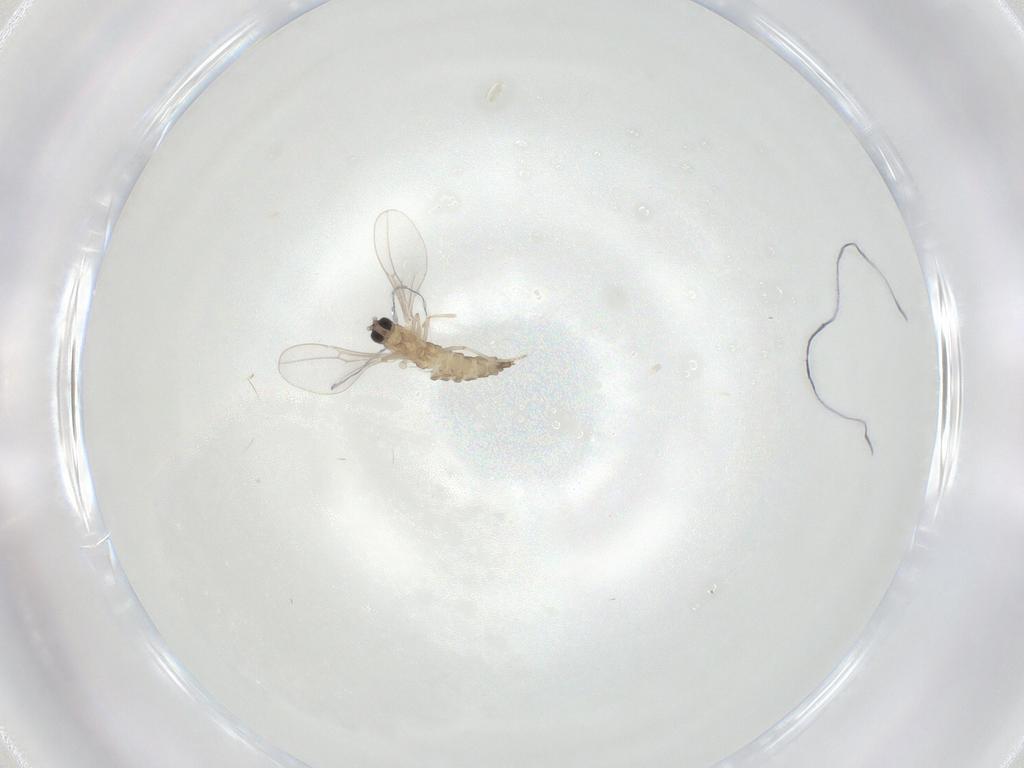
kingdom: Animalia
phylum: Arthropoda
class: Insecta
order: Diptera
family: Cecidomyiidae
